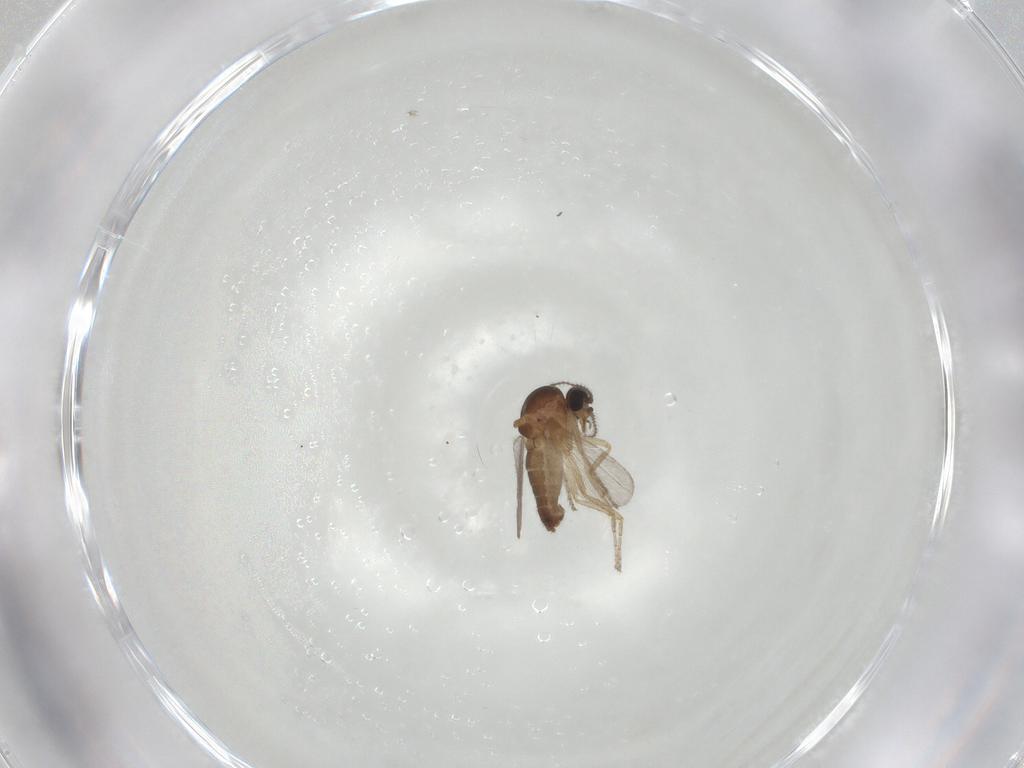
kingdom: Animalia
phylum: Arthropoda
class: Insecta
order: Diptera
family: Ceratopogonidae
